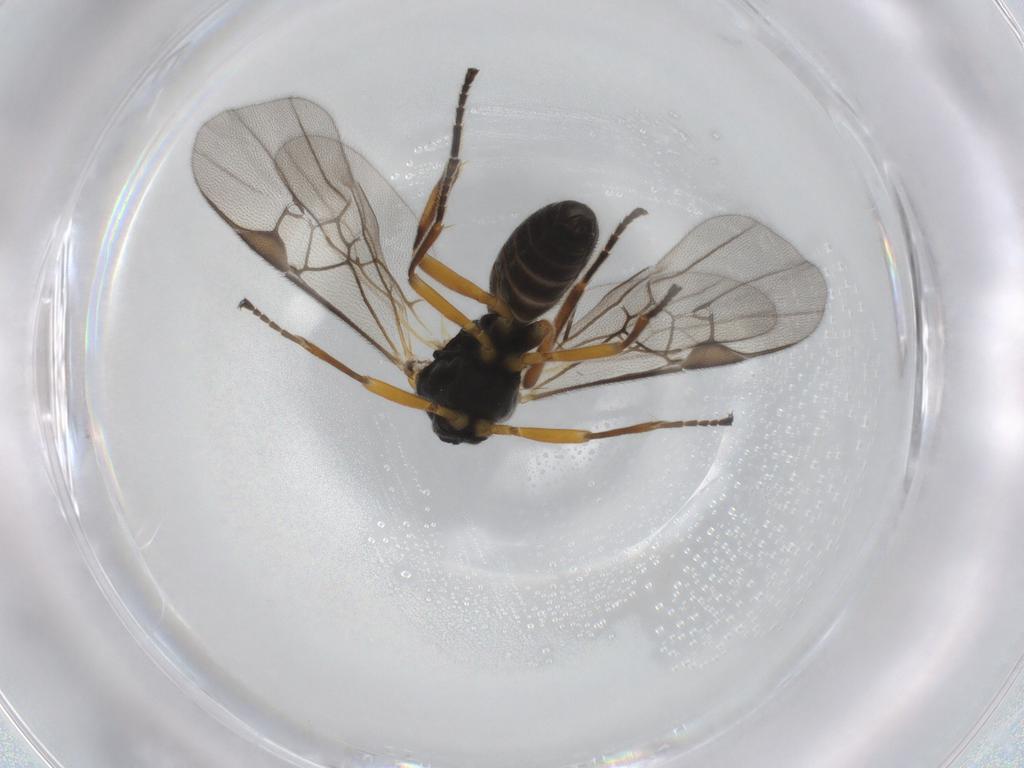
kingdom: Animalia
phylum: Arthropoda
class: Insecta
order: Hymenoptera
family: Braconidae
